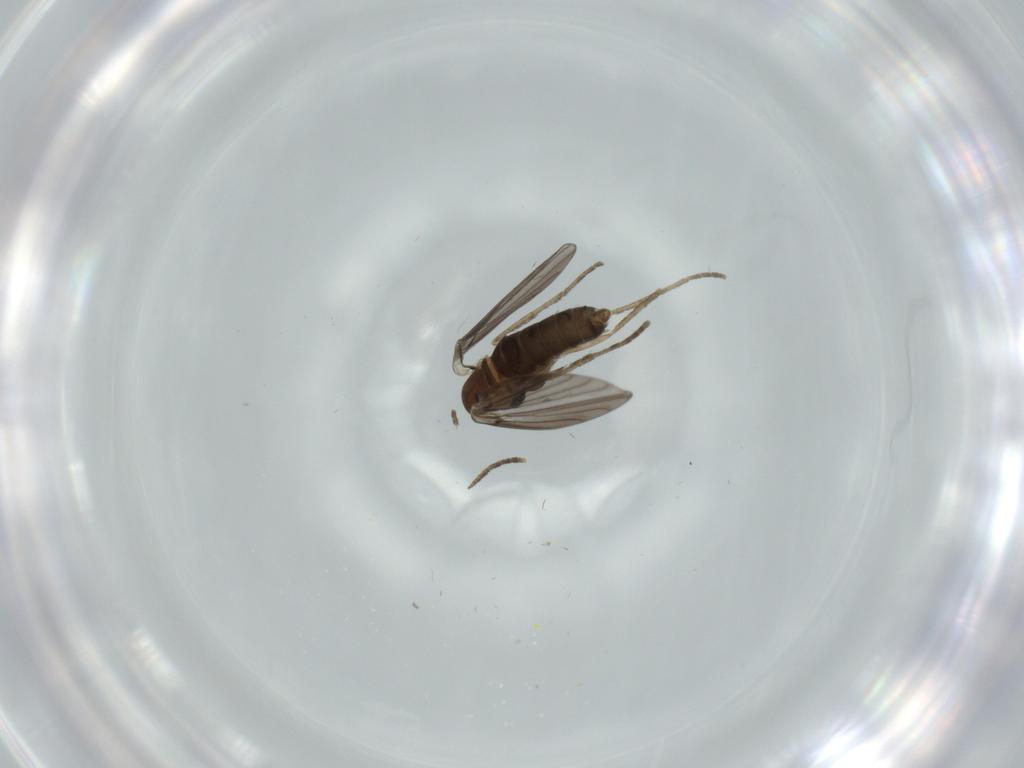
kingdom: Animalia
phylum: Arthropoda
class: Insecta
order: Diptera
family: Psychodidae
